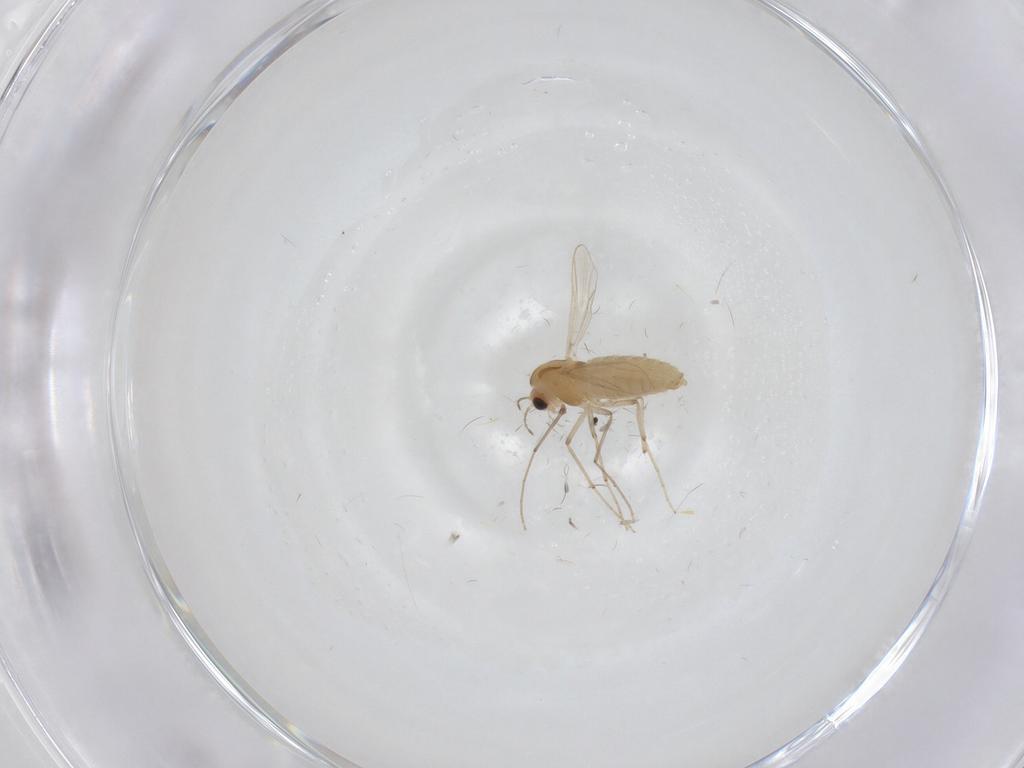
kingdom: Animalia
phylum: Arthropoda
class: Insecta
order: Diptera
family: Chironomidae
